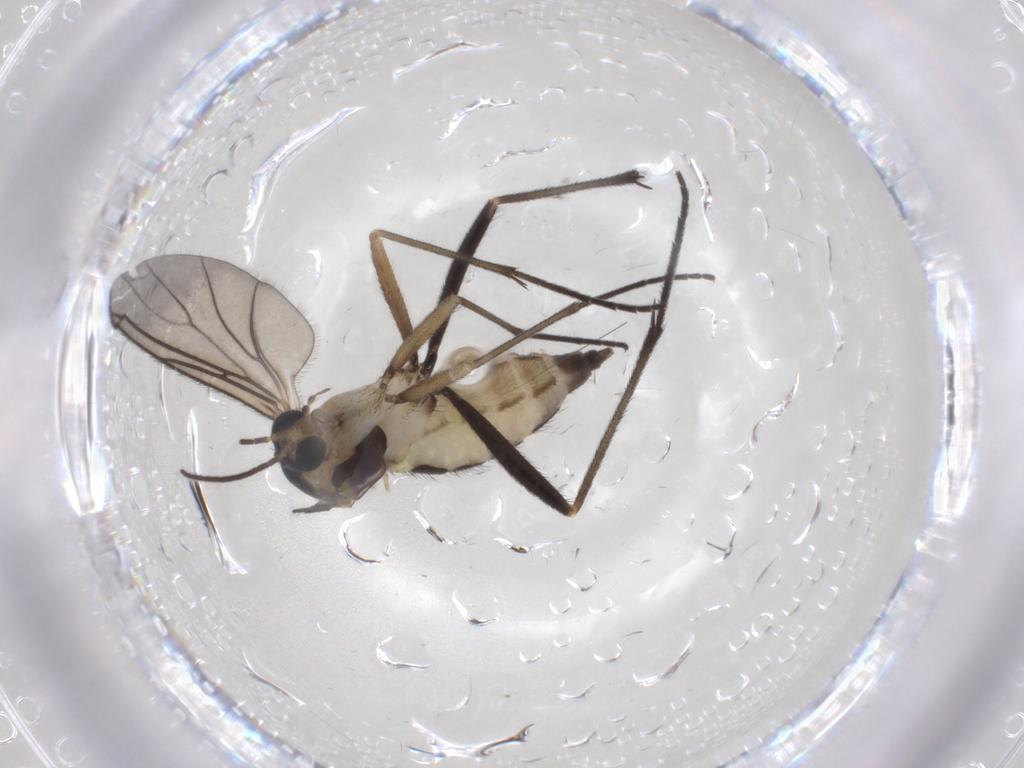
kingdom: Animalia
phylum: Arthropoda
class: Insecta
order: Diptera
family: Sciaridae
